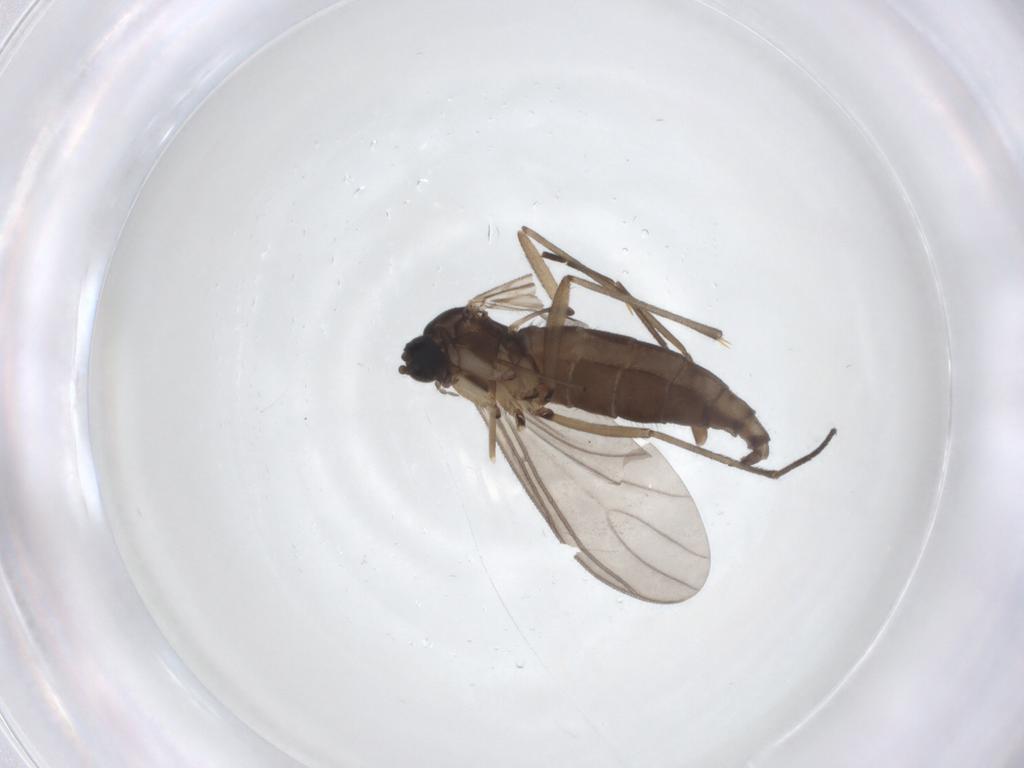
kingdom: Animalia
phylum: Arthropoda
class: Insecta
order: Diptera
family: Sciaridae
